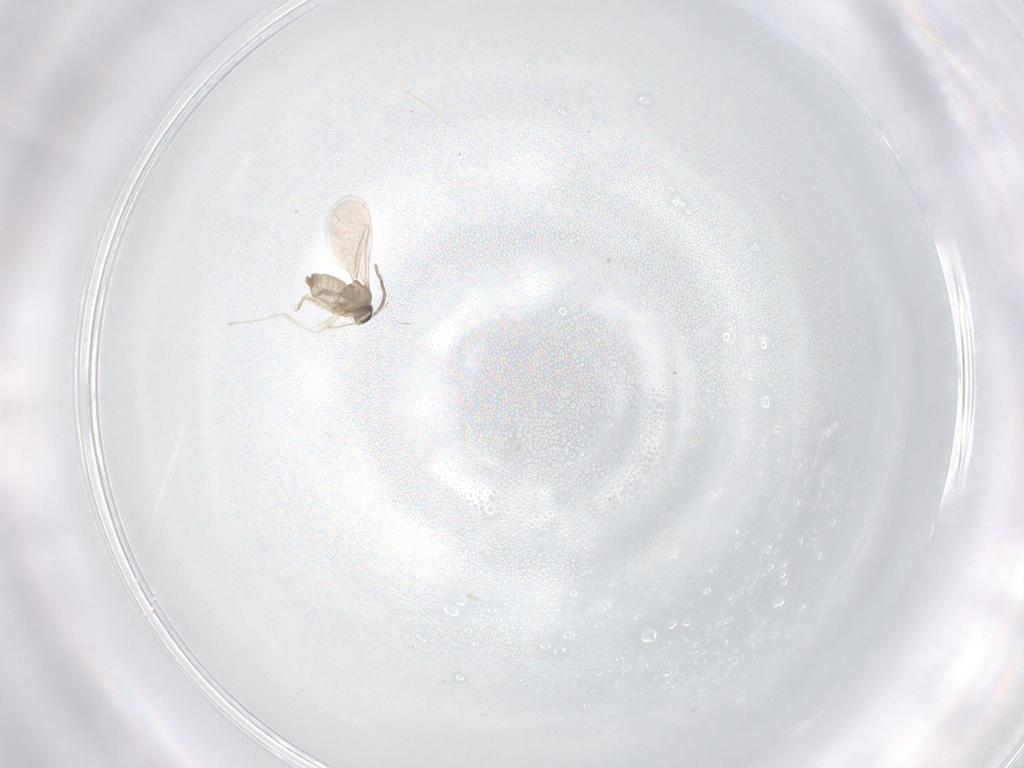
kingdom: Animalia
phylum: Arthropoda
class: Insecta
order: Diptera
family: Phoridae
